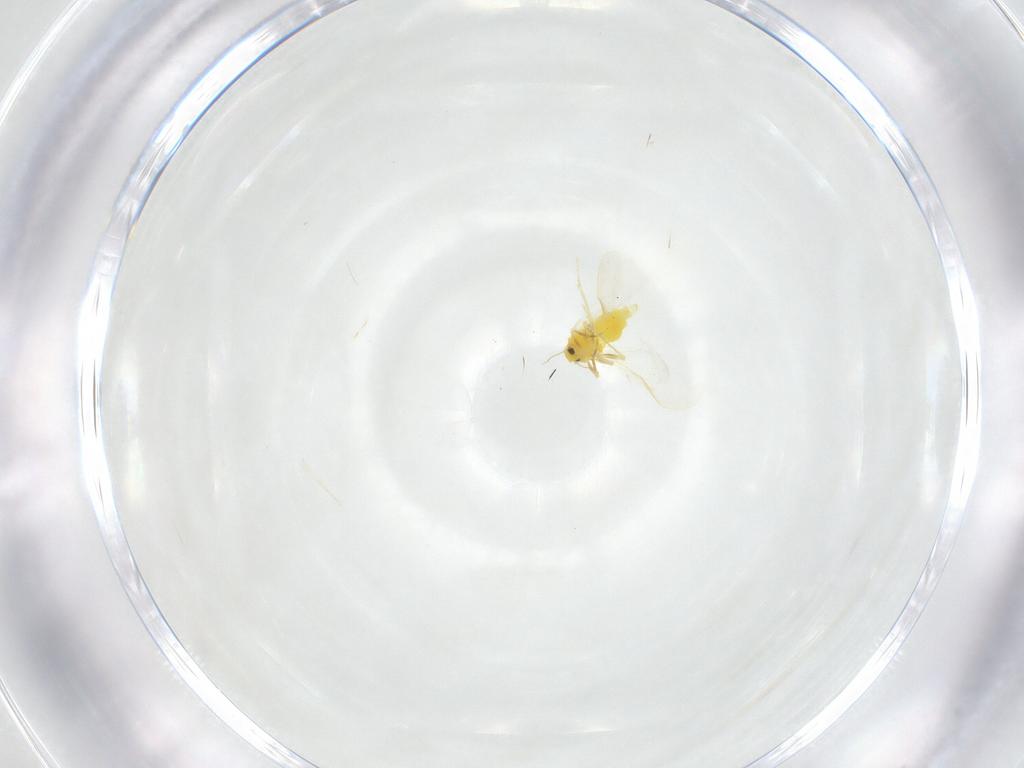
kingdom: Animalia
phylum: Arthropoda
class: Insecta
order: Hemiptera
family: Aleyrodidae
